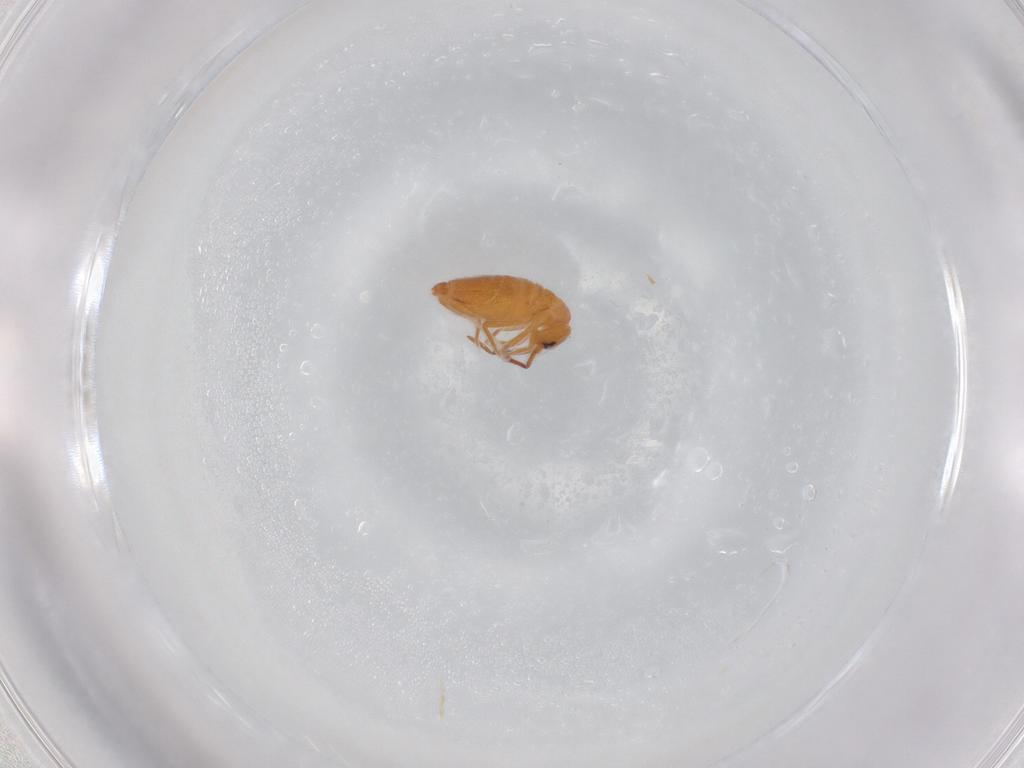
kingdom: Animalia
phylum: Arthropoda
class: Collembola
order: Entomobryomorpha
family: Entomobryidae
